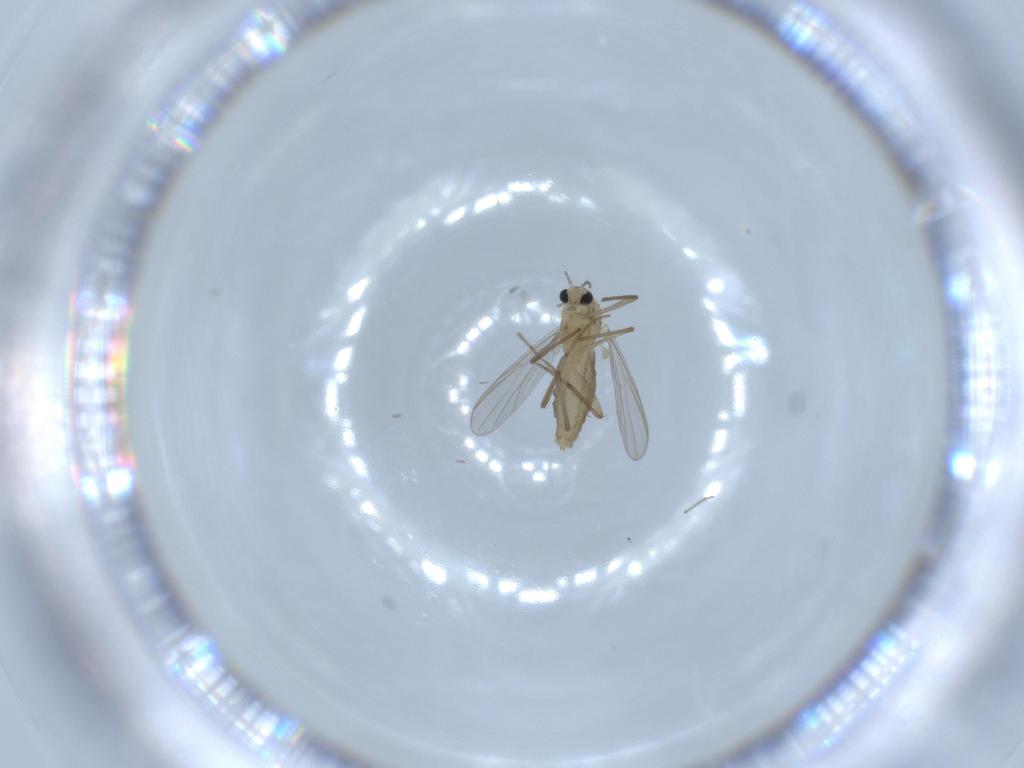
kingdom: Animalia
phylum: Arthropoda
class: Insecta
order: Diptera
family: Chironomidae
